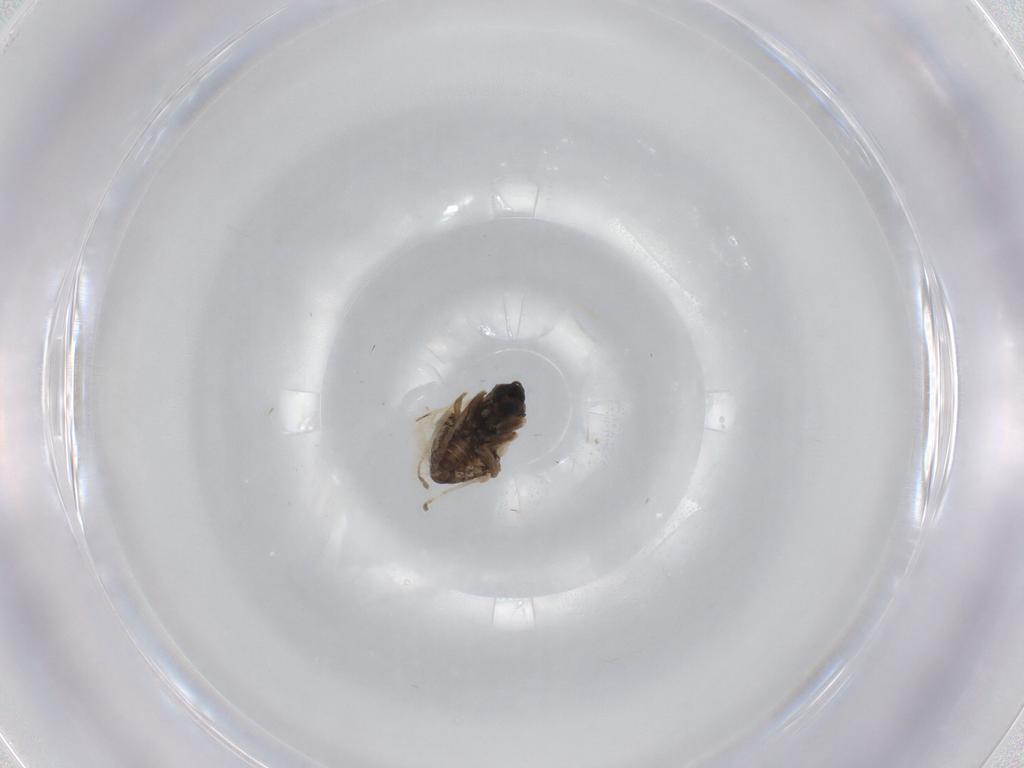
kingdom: Animalia
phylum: Arthropoda
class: Insecta
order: Diptera
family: Cecidomyiidae
